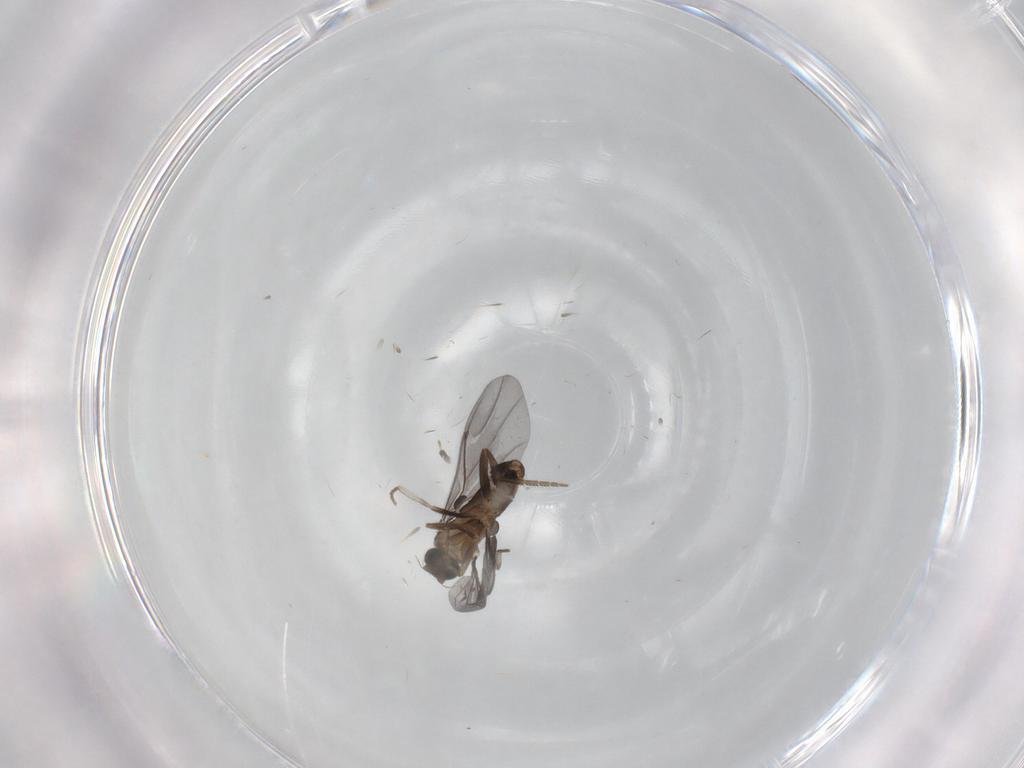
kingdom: Animalia
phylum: Arthropoda
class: Insecta
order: Diptera
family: Phoridae
